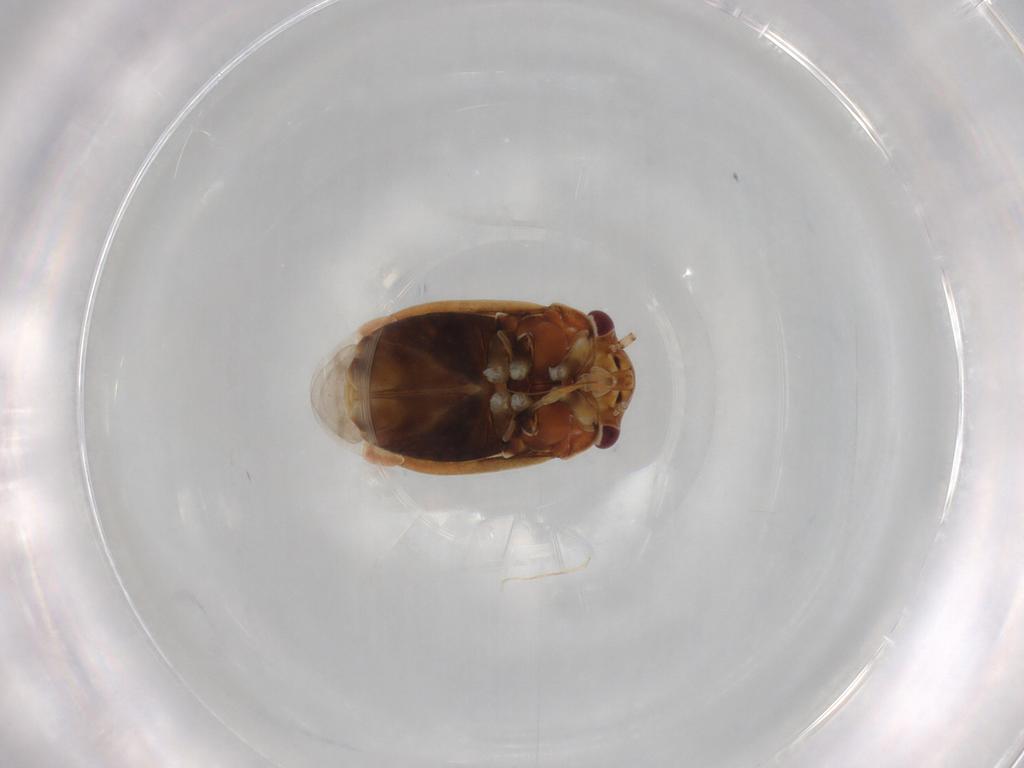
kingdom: Animalia
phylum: Arthropoda
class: Insecta
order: Hemiptera
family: Miridae
